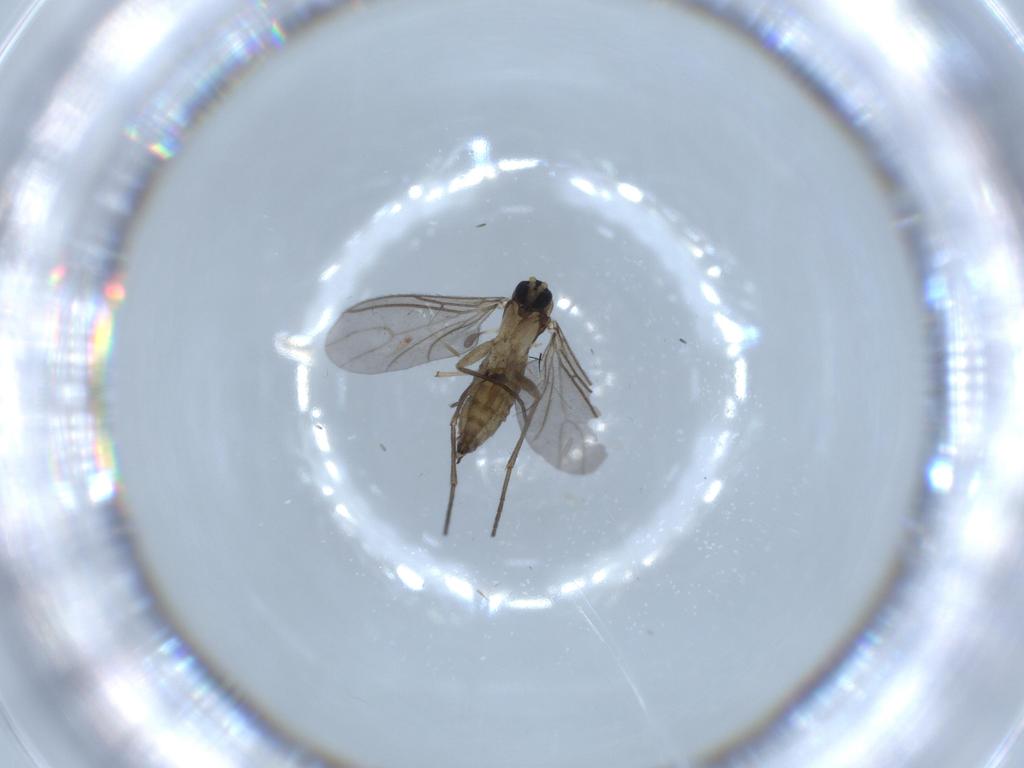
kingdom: Animalia
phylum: Arthropoda
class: Insecta
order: Diptera
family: Sciaridae
